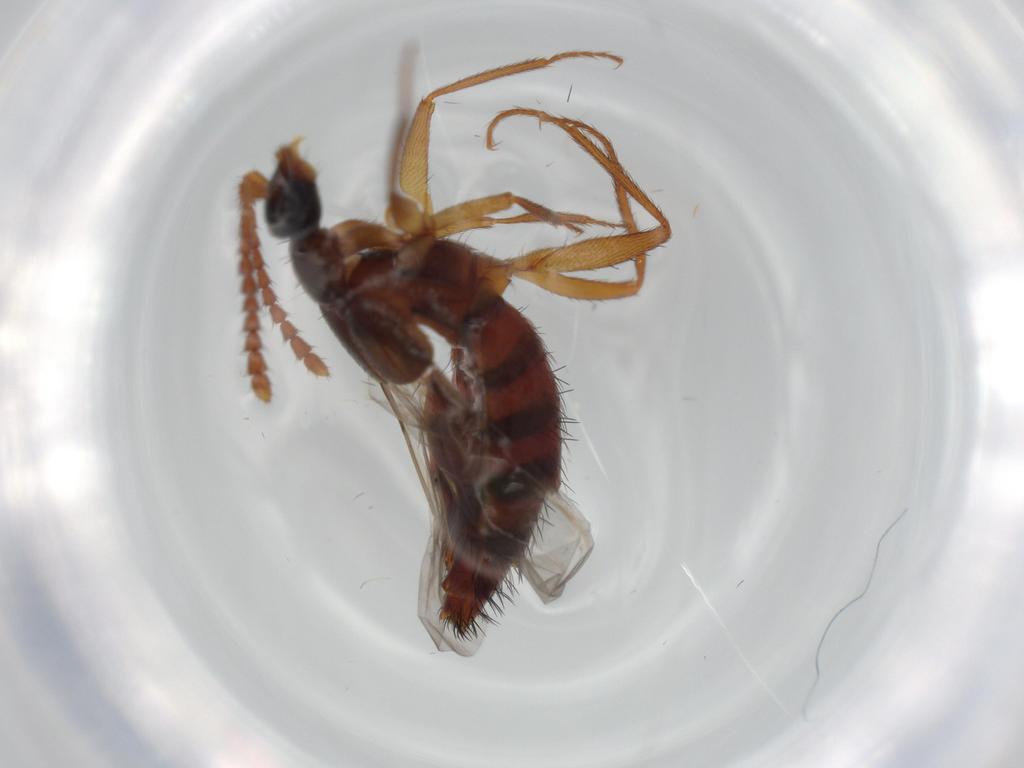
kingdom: Animalia
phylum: Arthropoda
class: Insecta
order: Coleoptera
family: Staphylinidae
